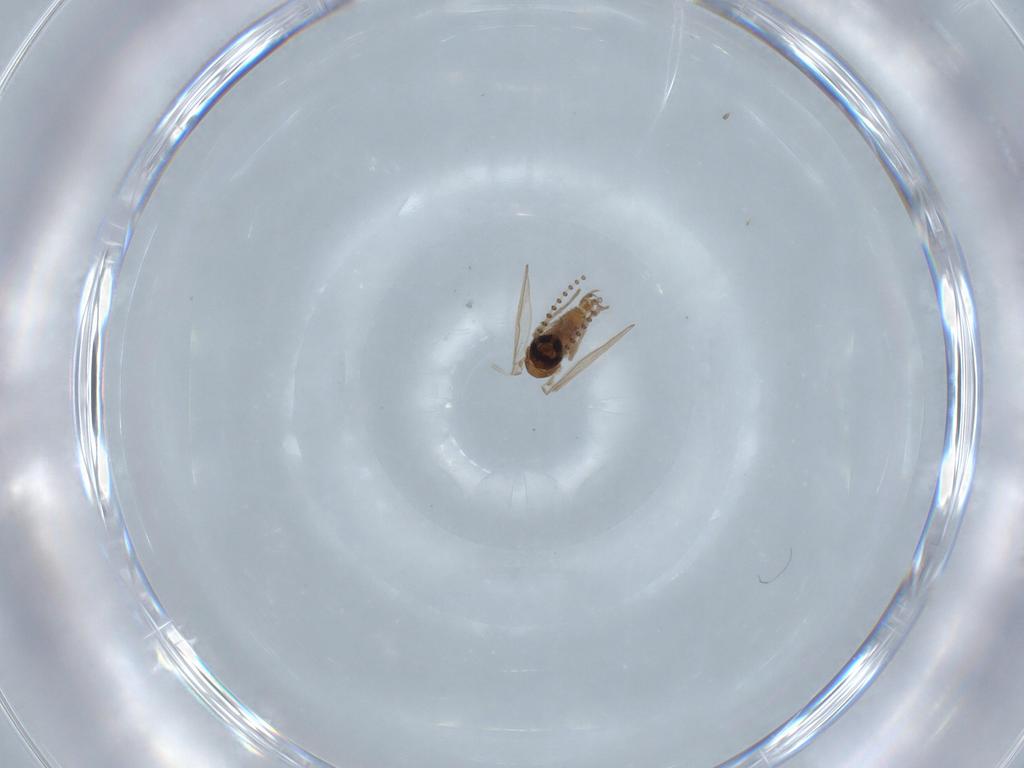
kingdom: Animalia
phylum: Arthropoda
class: Insecta
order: Diptera
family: Psychodidae
